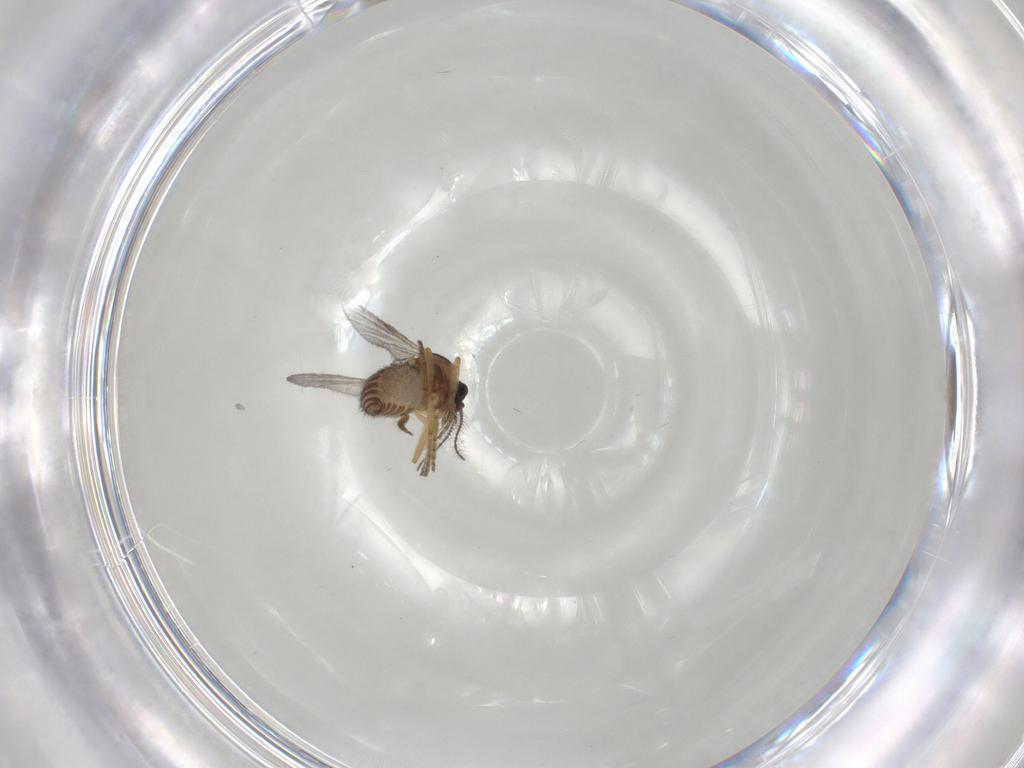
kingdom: Animalia
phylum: Arthropoda
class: Insecta
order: Diptera
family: Ceratopogonidae
